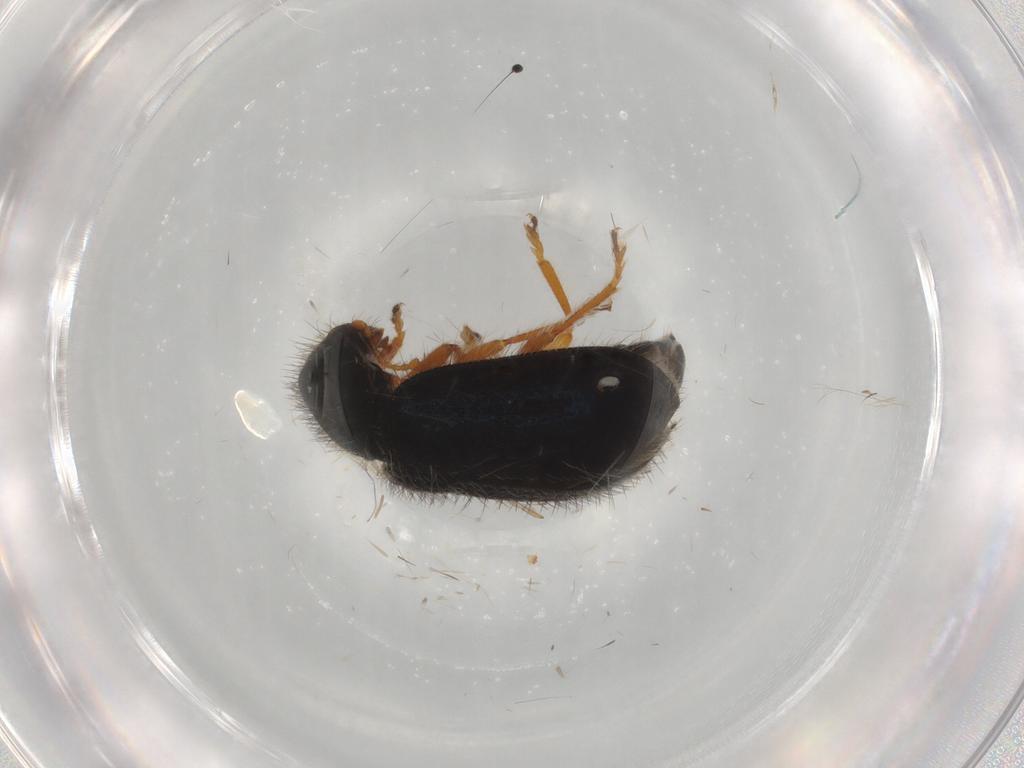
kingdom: Animalia
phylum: Arthropoda
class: Insecta
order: Coleoptera
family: Cleridae
